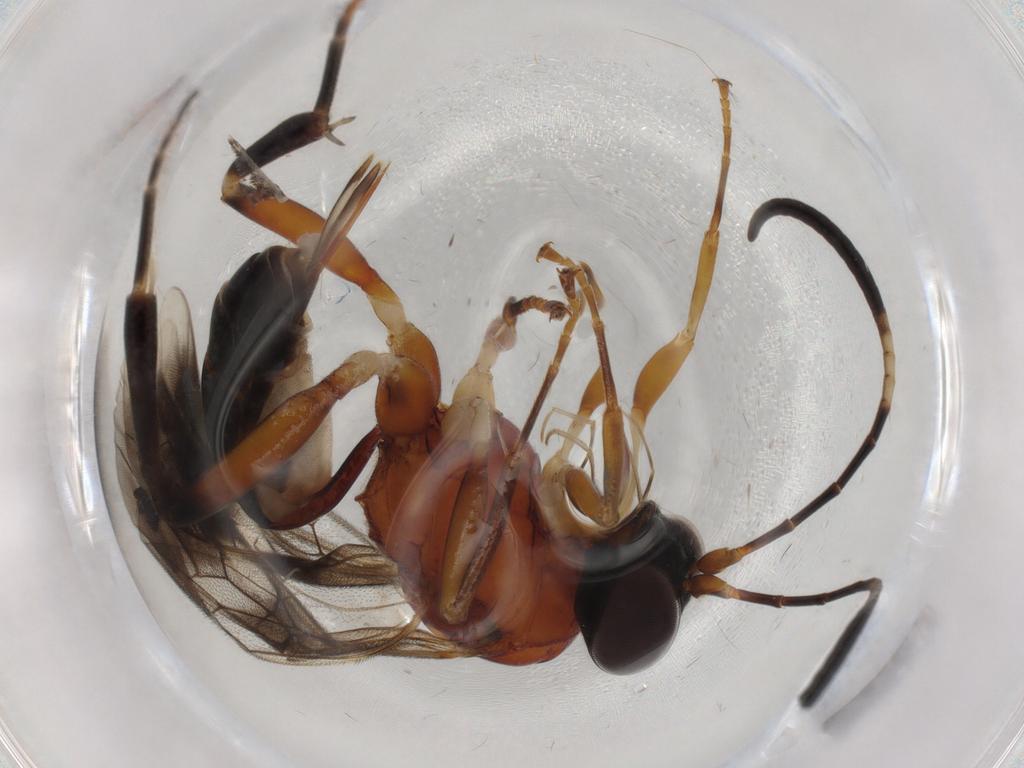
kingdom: Animalia
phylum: Arthropoda
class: Insecta
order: Hymenoptera
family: Ichneumonidae
